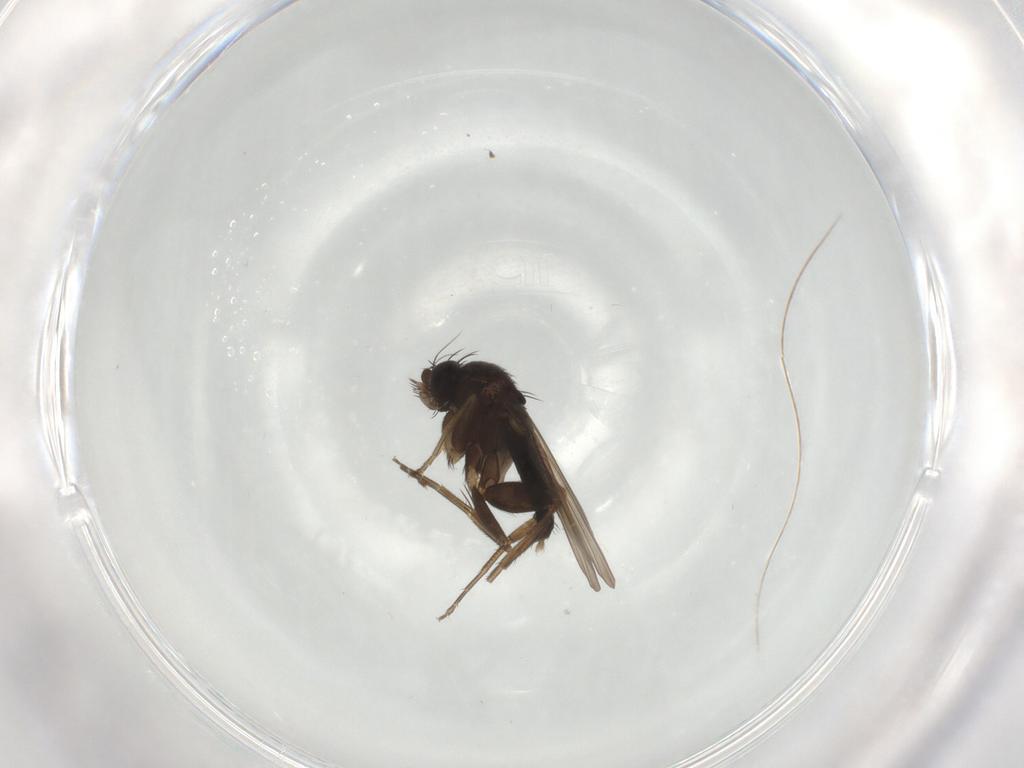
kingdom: Animalia
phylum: Arthropoda
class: Insecta
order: Diptera
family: Phoridae
